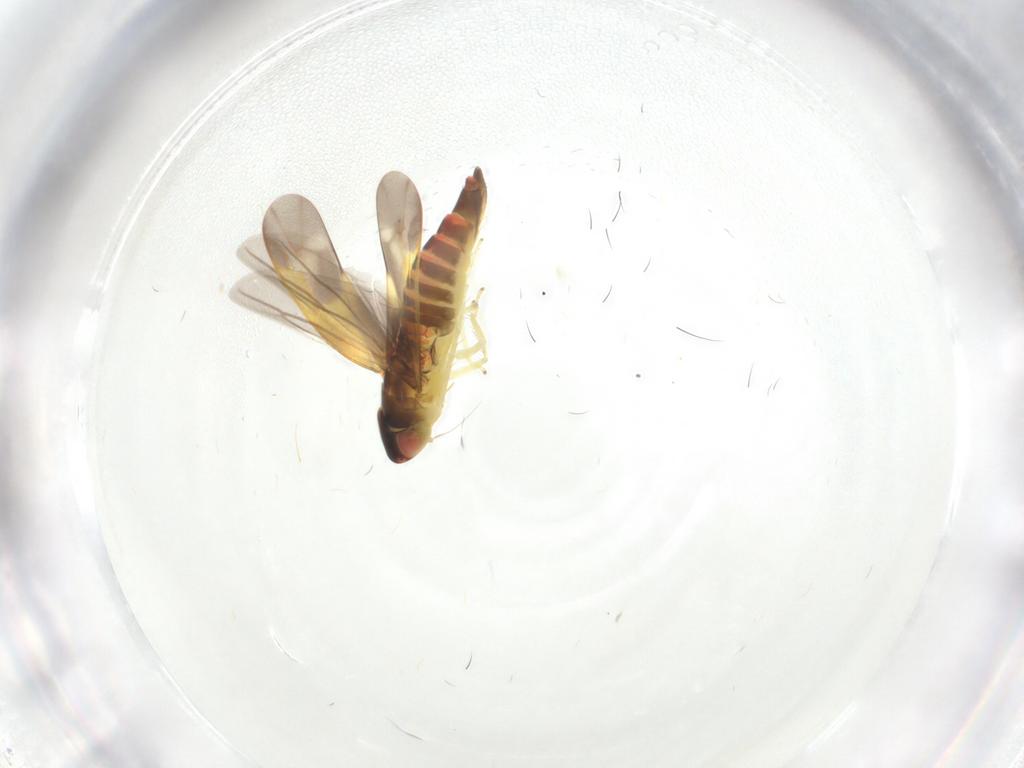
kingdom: Animalia
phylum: Arthropoda
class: Insecta
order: Hemiptera
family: Cicadellidae
